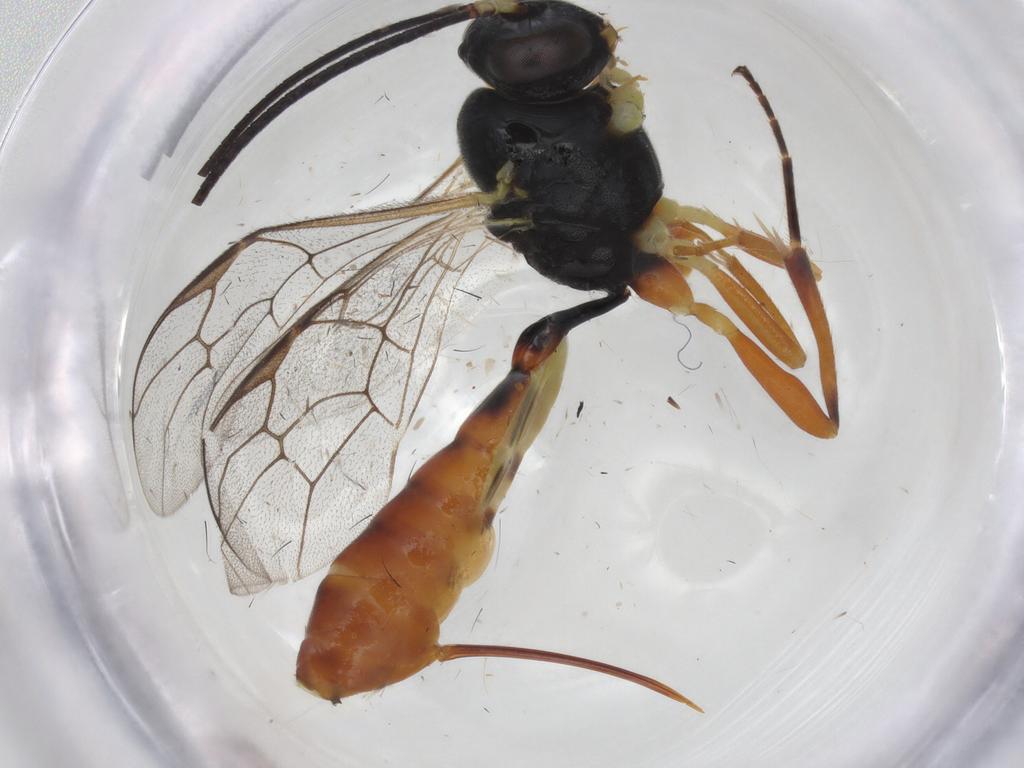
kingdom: Animalia
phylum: Arthropoda
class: Insecta
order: Hymenoptera
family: Ichneumonidae
